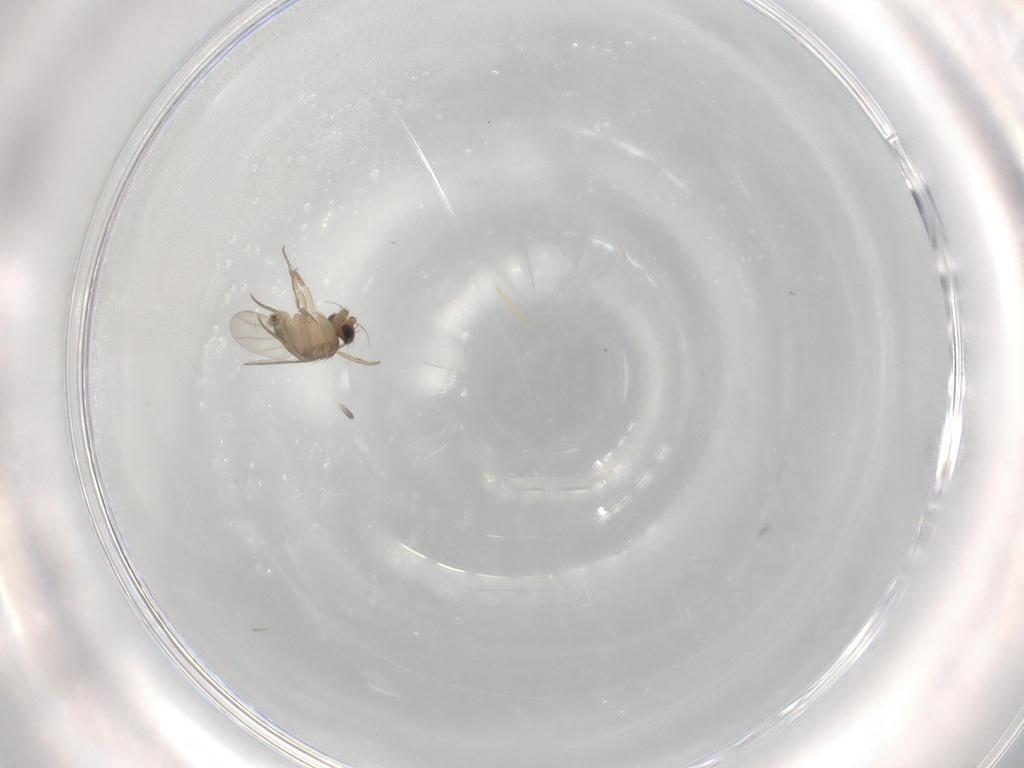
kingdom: Animalia
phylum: Arthropoda
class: Insecta
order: Diptera
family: Phoridae
